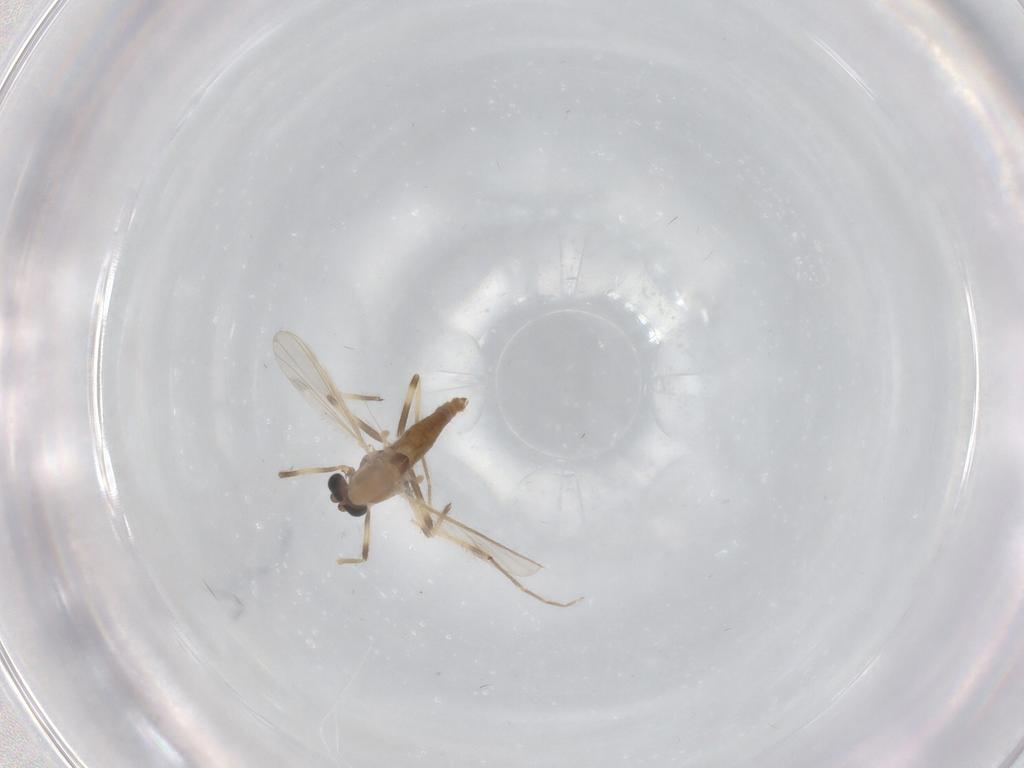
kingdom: Animalia
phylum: Arthropoda
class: Insecta
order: Diptera
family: Chironomidae
